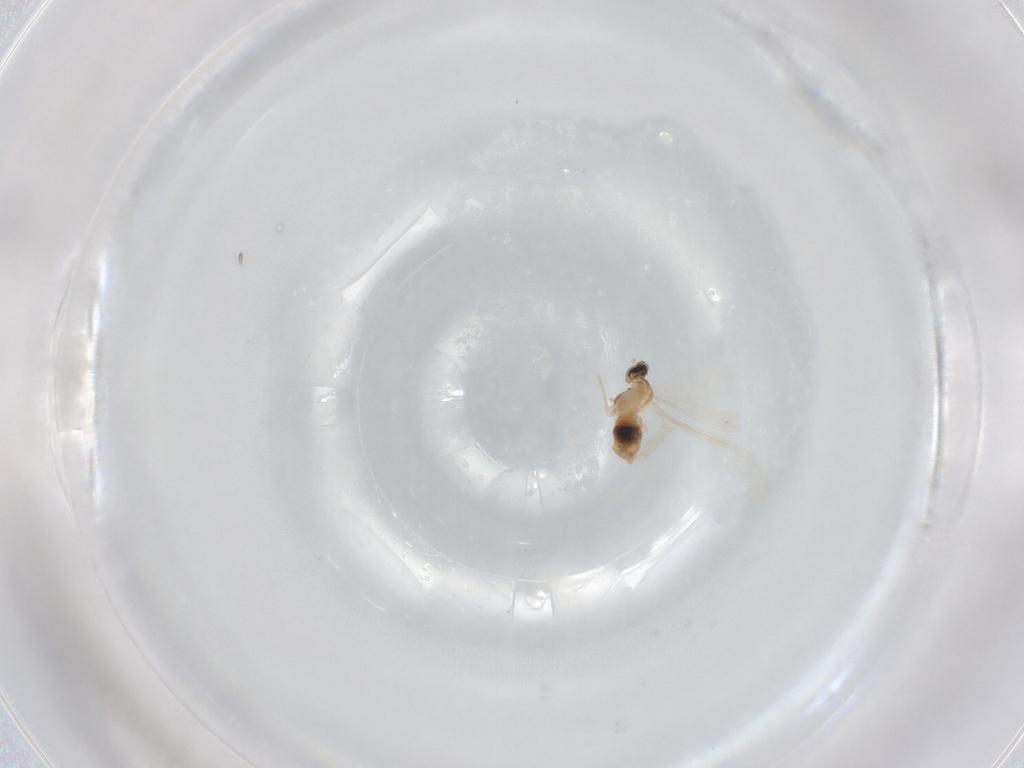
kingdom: Animalia
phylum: Arthropoda
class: Insecta
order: Diptera
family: Cecidomyiidae
